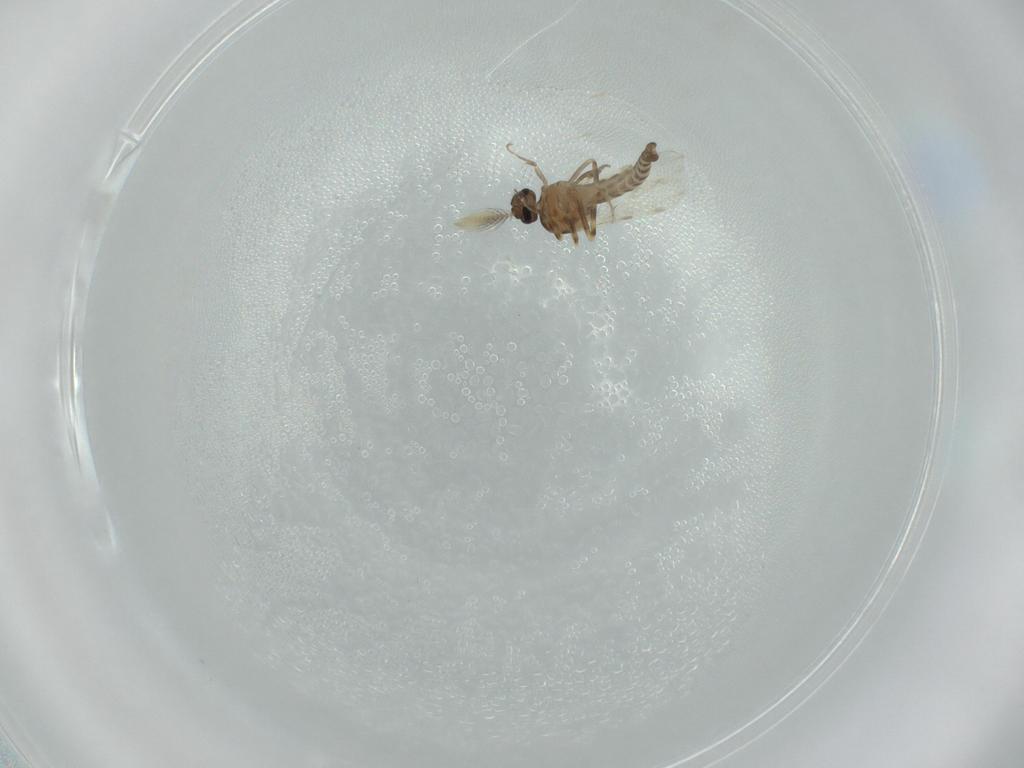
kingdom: Animalia
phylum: Arthropoda
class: Insecta
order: Diptera
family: Ceratopogonidae
